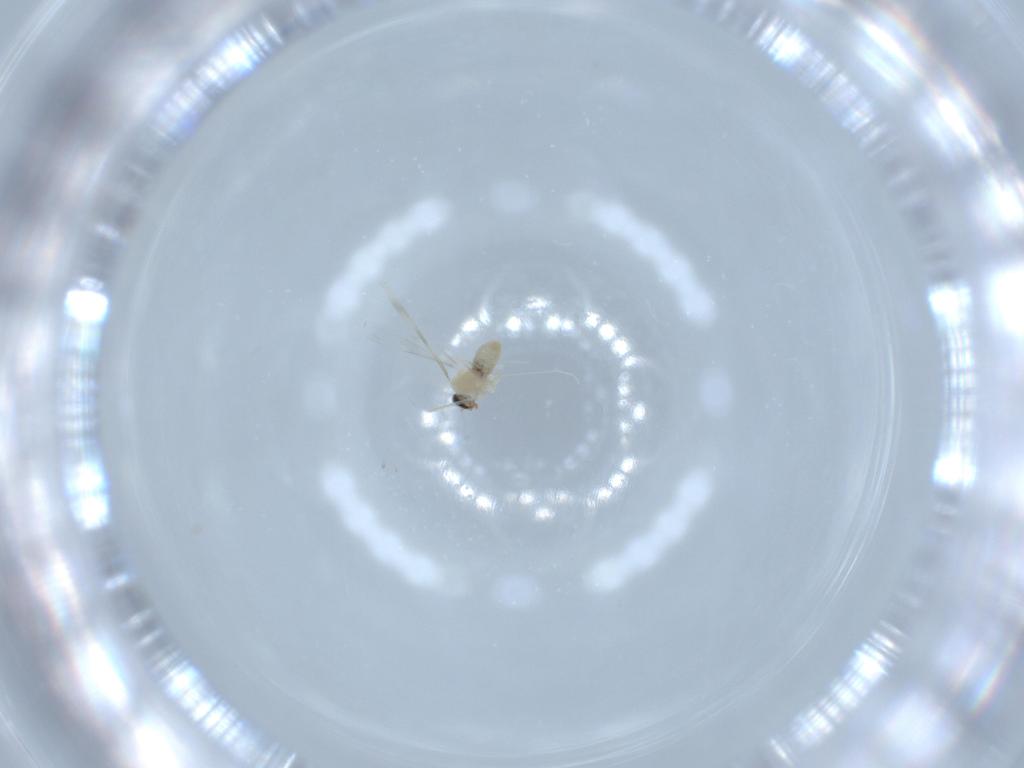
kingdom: Animalia
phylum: Arthropoda
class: Insecta
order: Diptera
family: Cecidomyiidae
